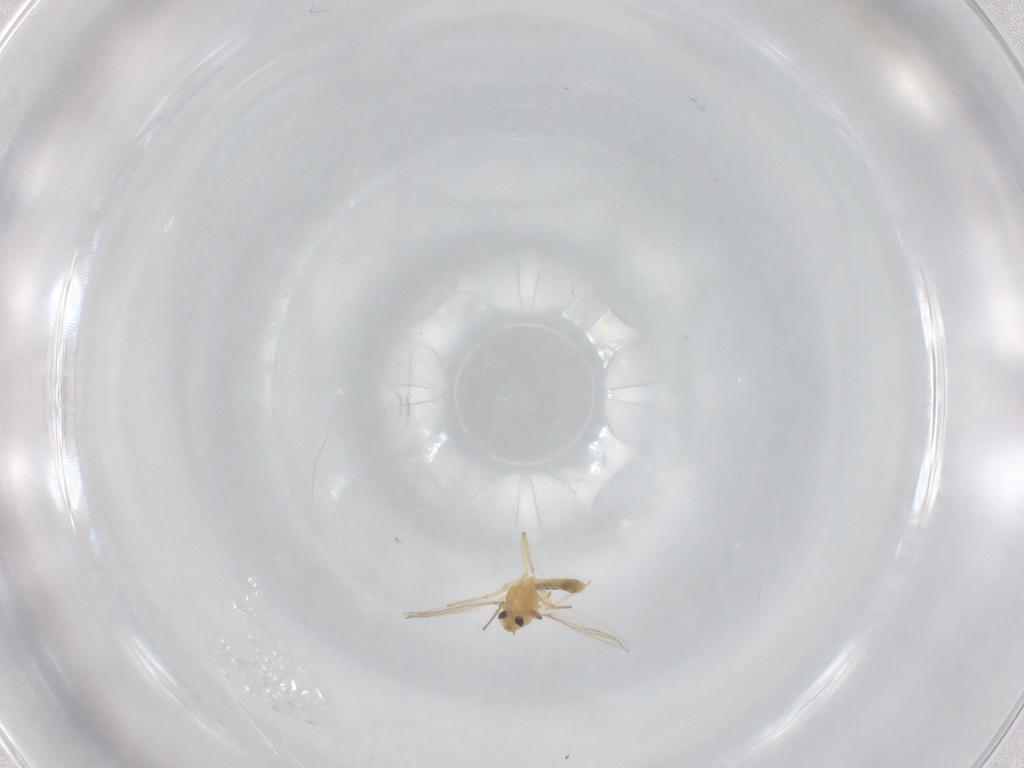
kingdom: Animalia
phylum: Arthropoda
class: Insecta
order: Diptera
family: Chironomidae
